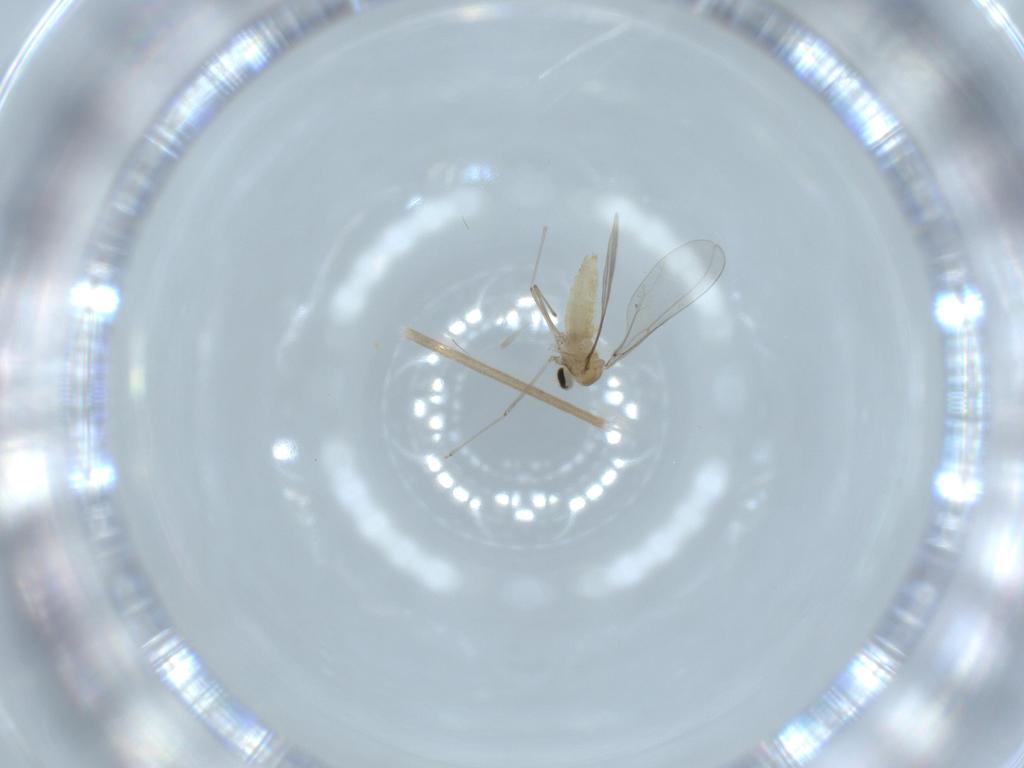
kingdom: Animalia
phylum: Arthropoda
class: Insecta
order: Diptera
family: Cecidomyiidae
